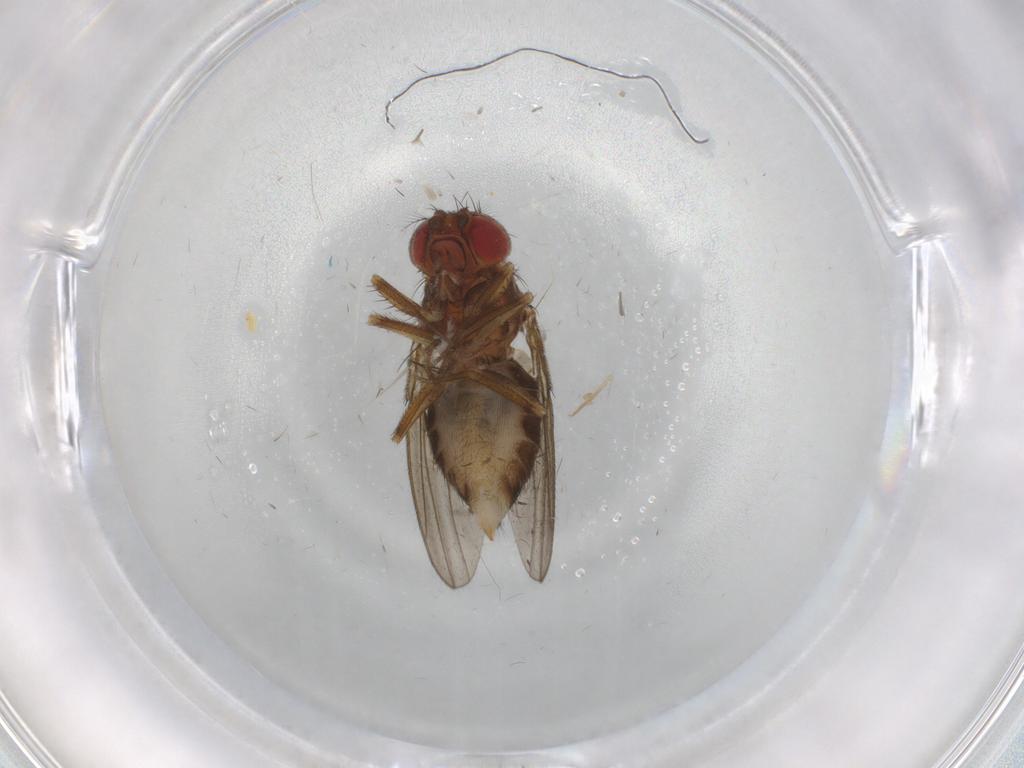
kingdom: Animalia
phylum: Arthropoda
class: Insecta
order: Diptera
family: Drosophilidae
